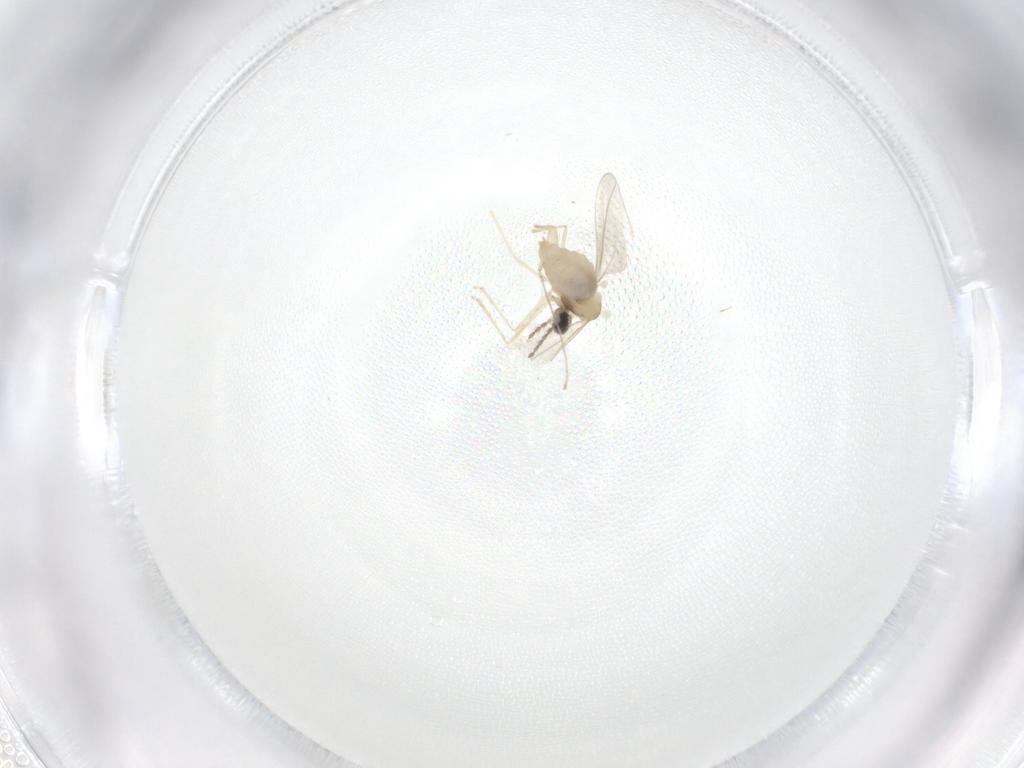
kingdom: Animalia
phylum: Arthropoda
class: Insecta
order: Diptera
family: Cecidomyiidae
